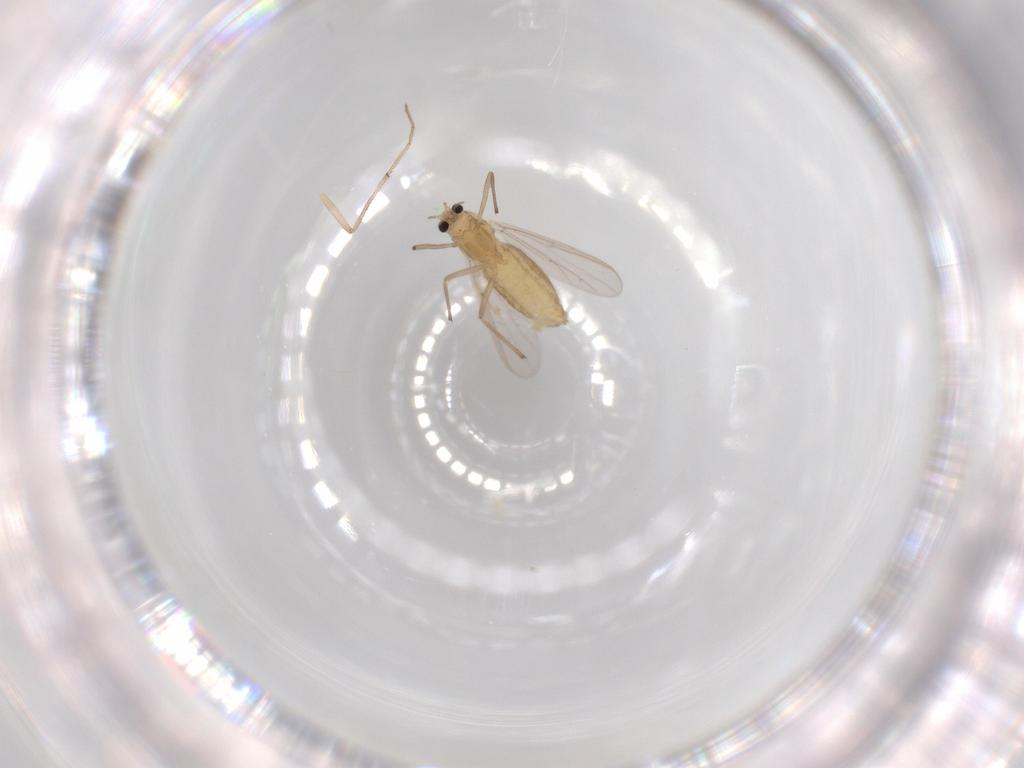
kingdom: Animalia
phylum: Arthropoda
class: Insecta
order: Diptera
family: Chironomidae
